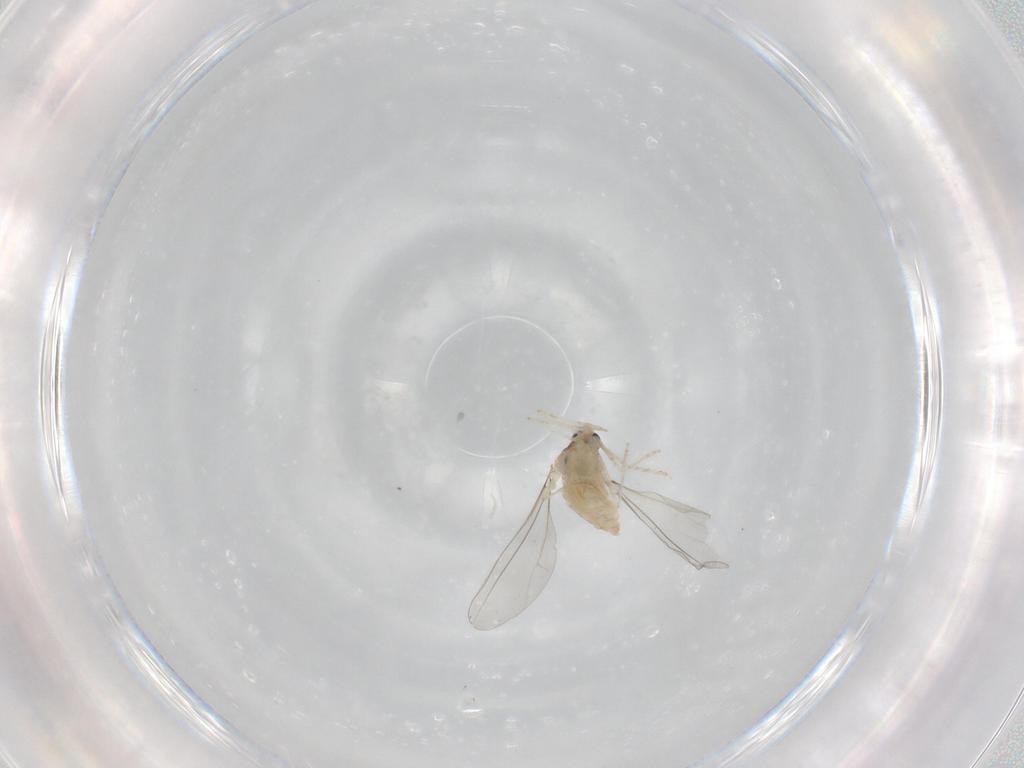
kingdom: Animalia
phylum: Arthropoda
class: Insecta
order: Diptera
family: Cecidomyiidae
